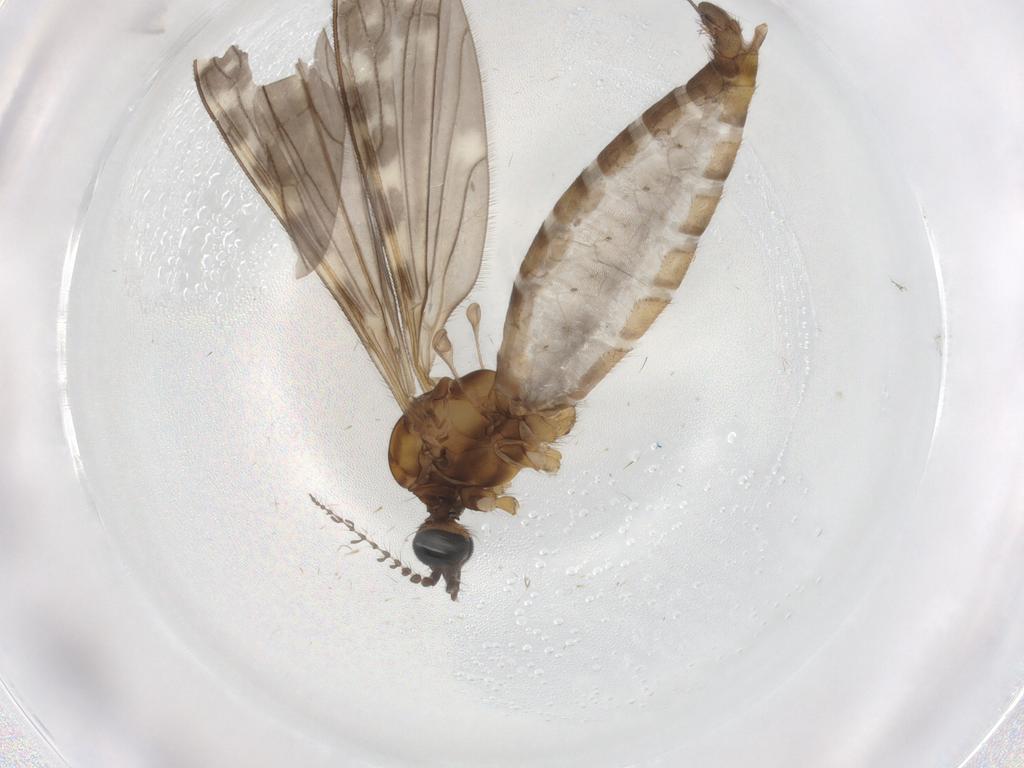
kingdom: Animalia
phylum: Arthropoda
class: Insecta
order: Diptera
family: Psychodidae
